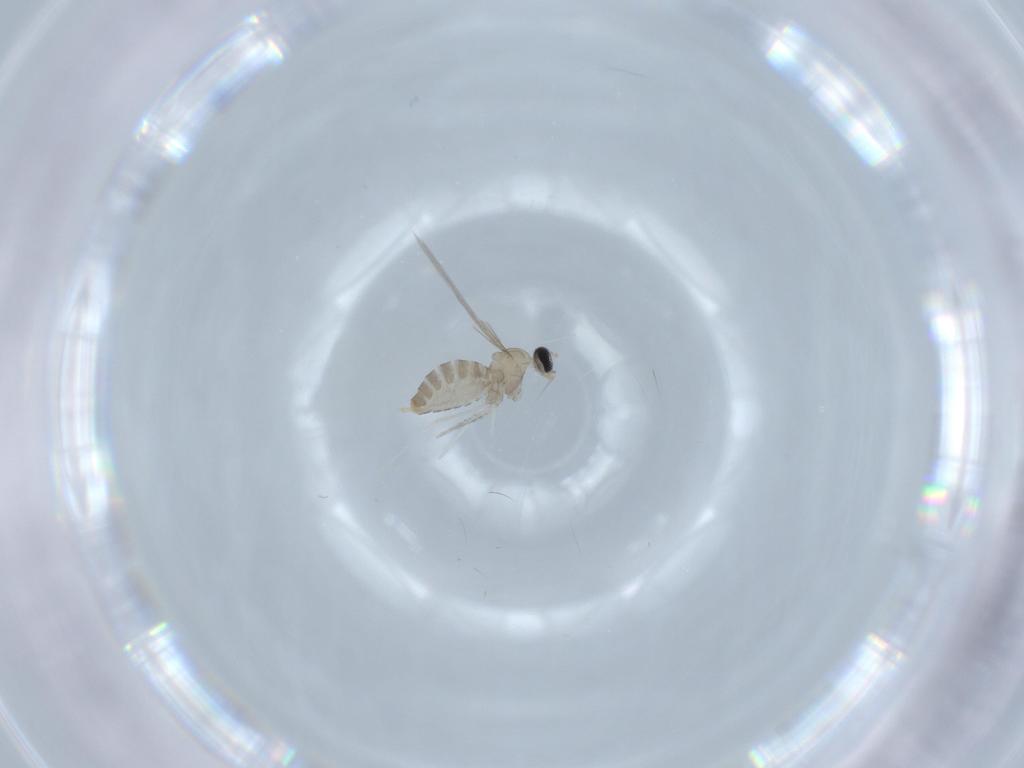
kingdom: Animalia
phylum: Arthropoda
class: Insecta
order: Diptera
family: Cecidomyiidae
